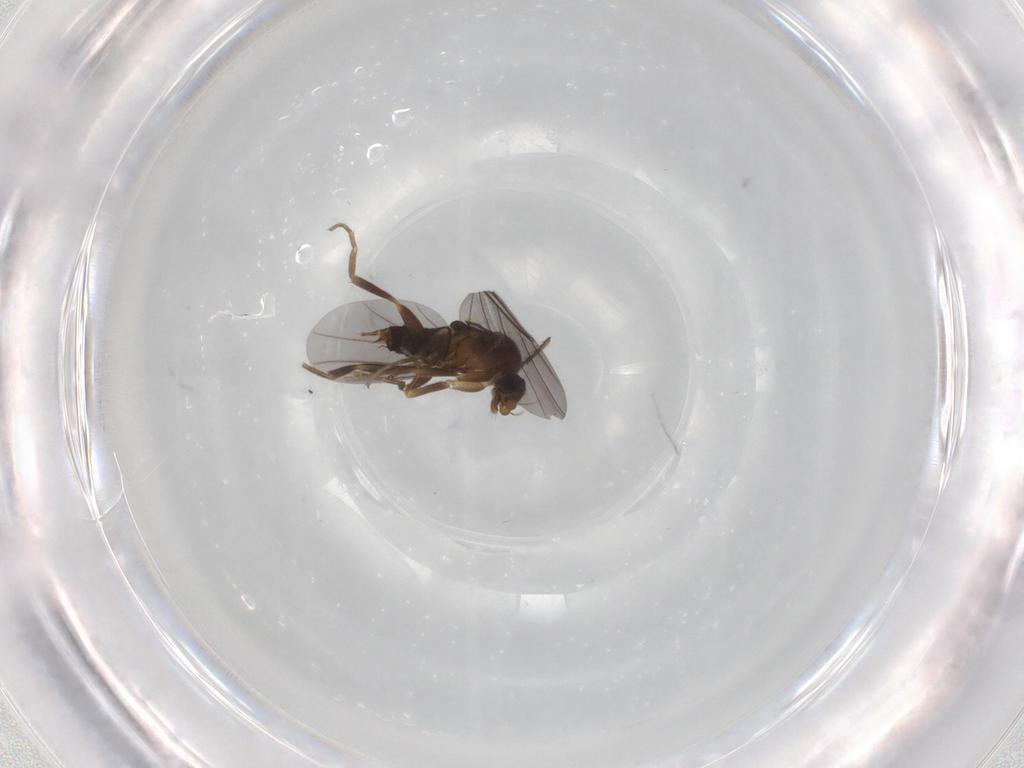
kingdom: Animalia
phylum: Arthropoda
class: Insecta
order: Diptera
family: Phoridae
